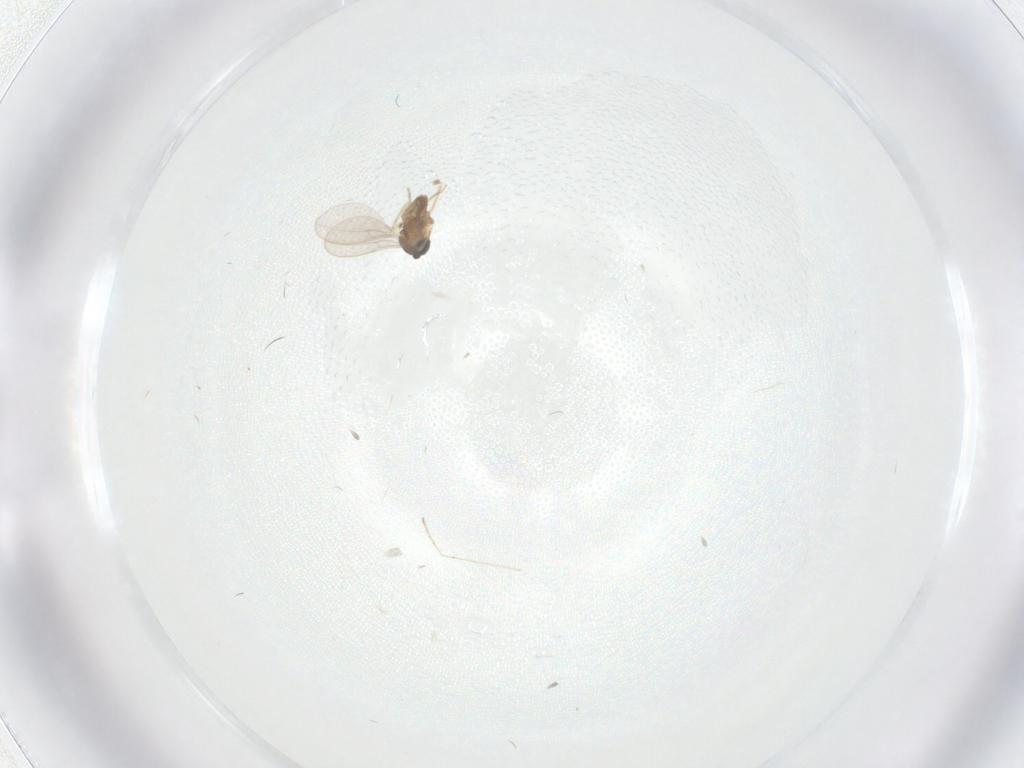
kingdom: Animalia
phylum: Arthropoda
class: Insecta
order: Diptera
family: Cecidomyiidae
